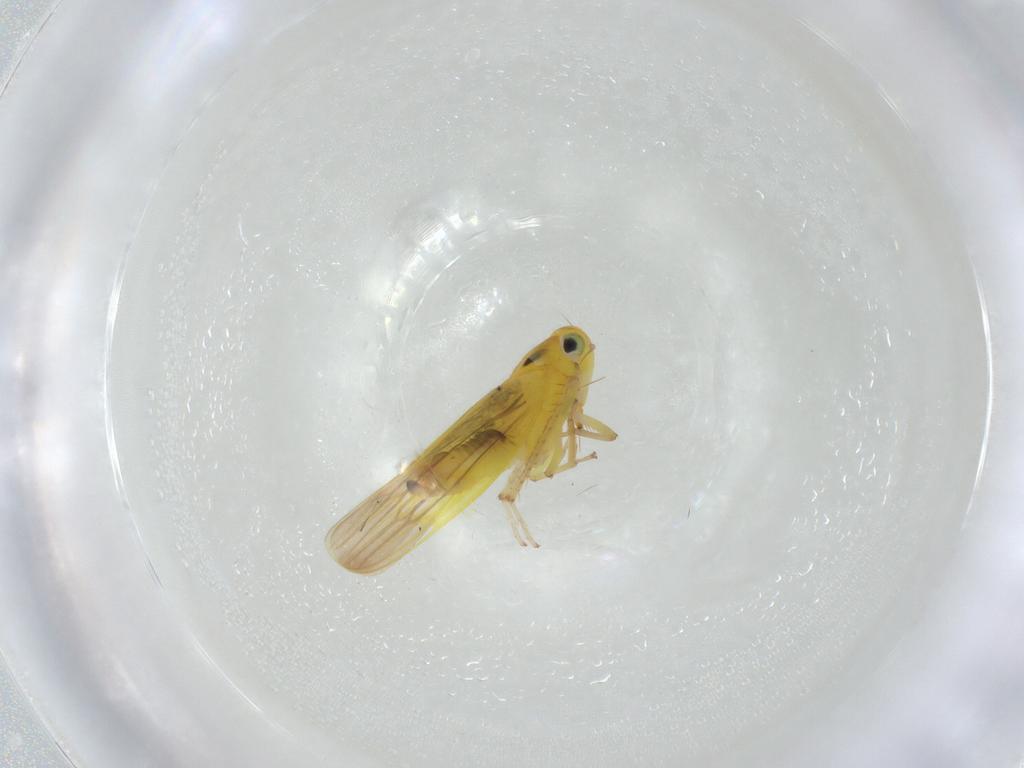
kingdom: Animalia
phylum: Arthropoda
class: Insecta
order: Hemiptera
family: Cicadellidae
